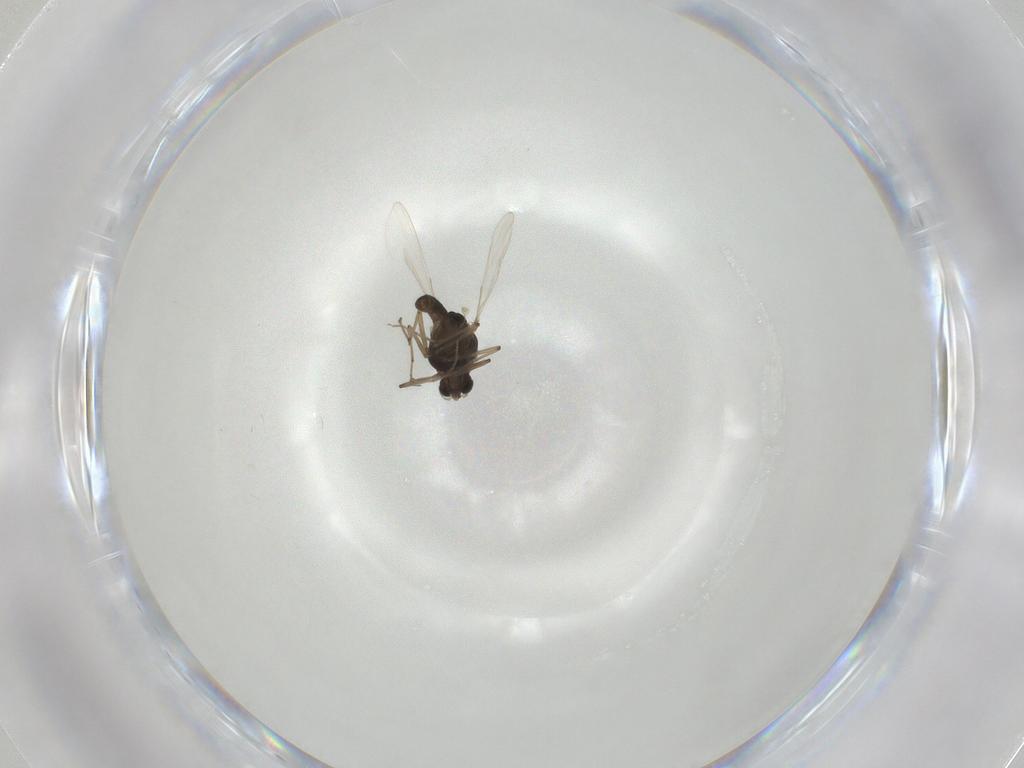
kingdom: Animalia
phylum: Arthropoda
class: Insecta
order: Diptera
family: Chironomidae
